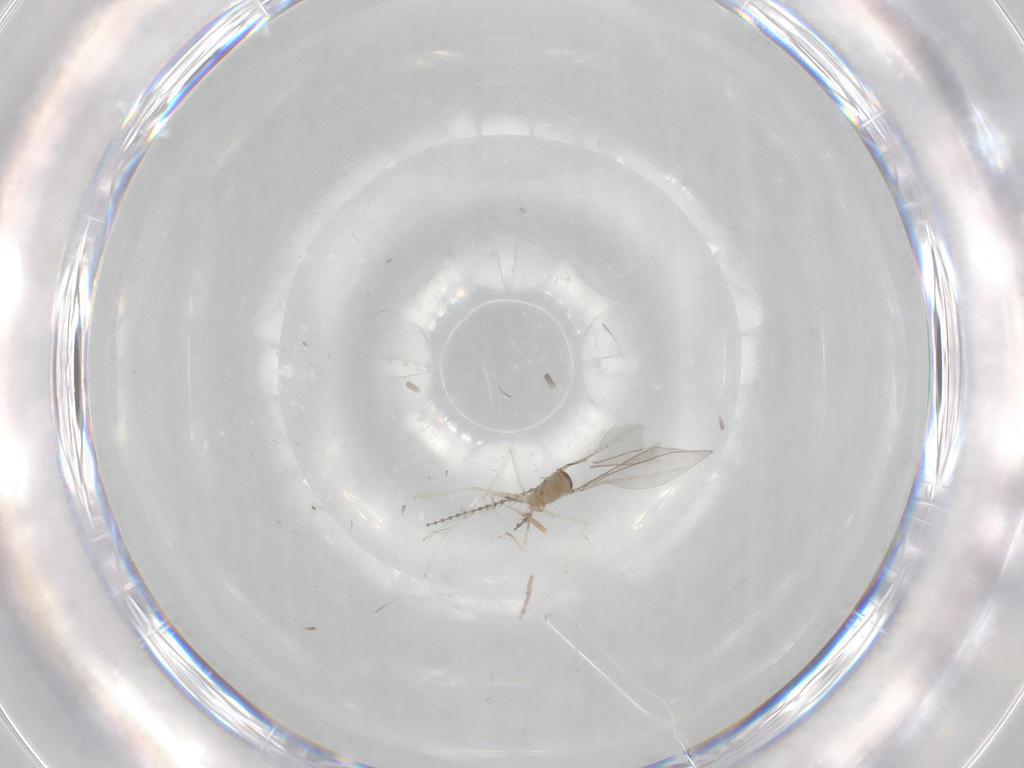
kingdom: Animalia
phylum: Arthropoda
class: Insecta
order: Diptera
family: Cecidomyiidae
